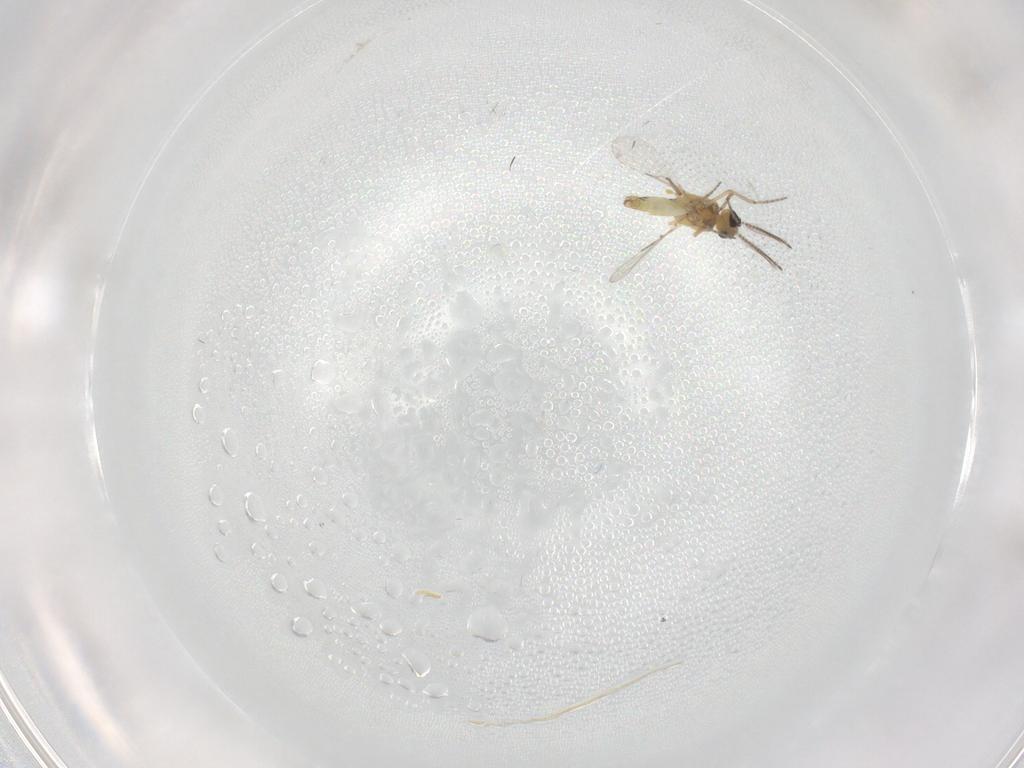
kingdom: Animalia
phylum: Arthropoda
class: Insecta
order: Diptera
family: Ceratopogonidae
